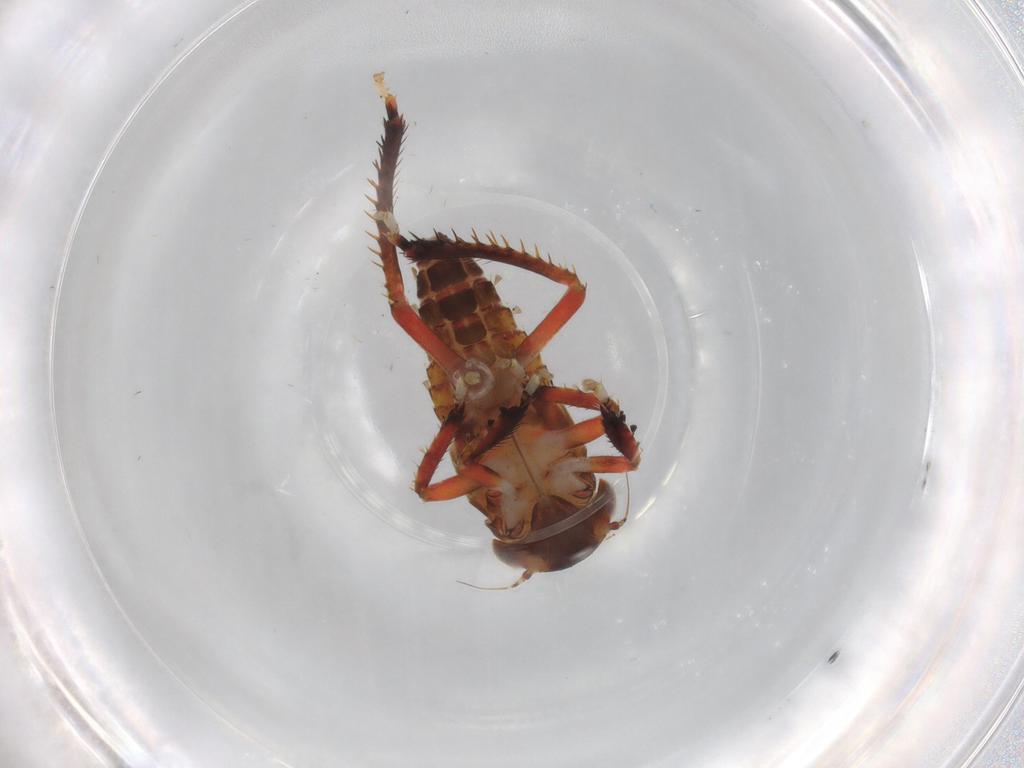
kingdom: Animalia
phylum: Arthropoda
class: Insecta
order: Hemiptera
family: Cicadellidae
